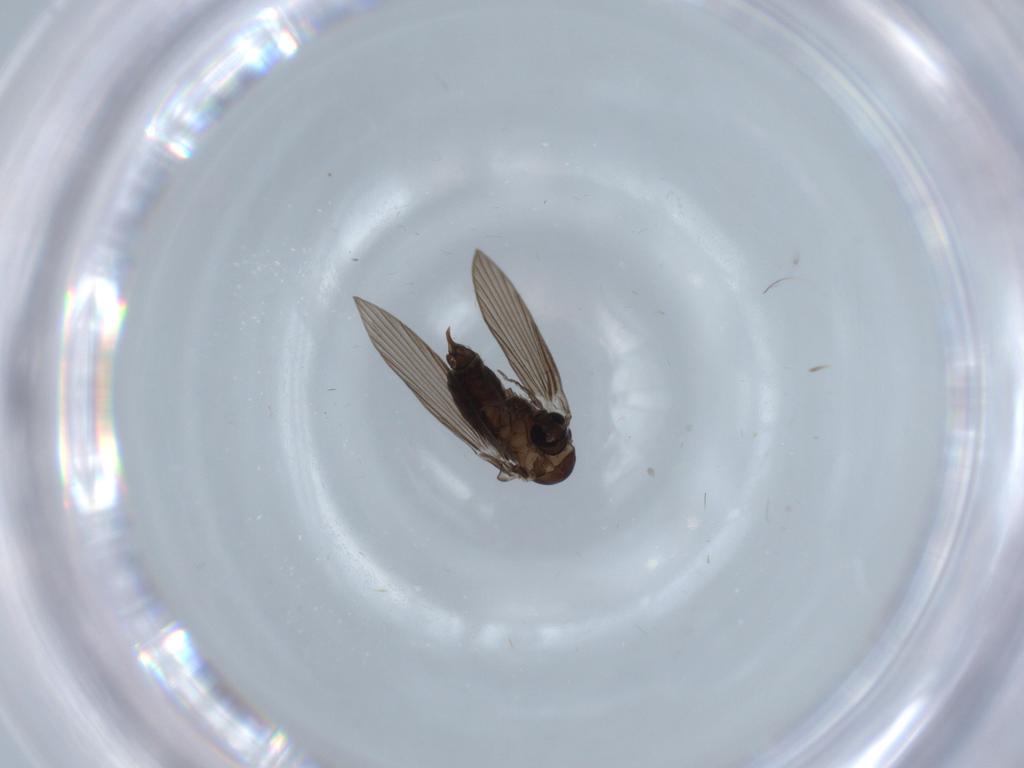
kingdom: Animalia
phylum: Arthropoda
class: Insecta
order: Diptera
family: Psychodidae
